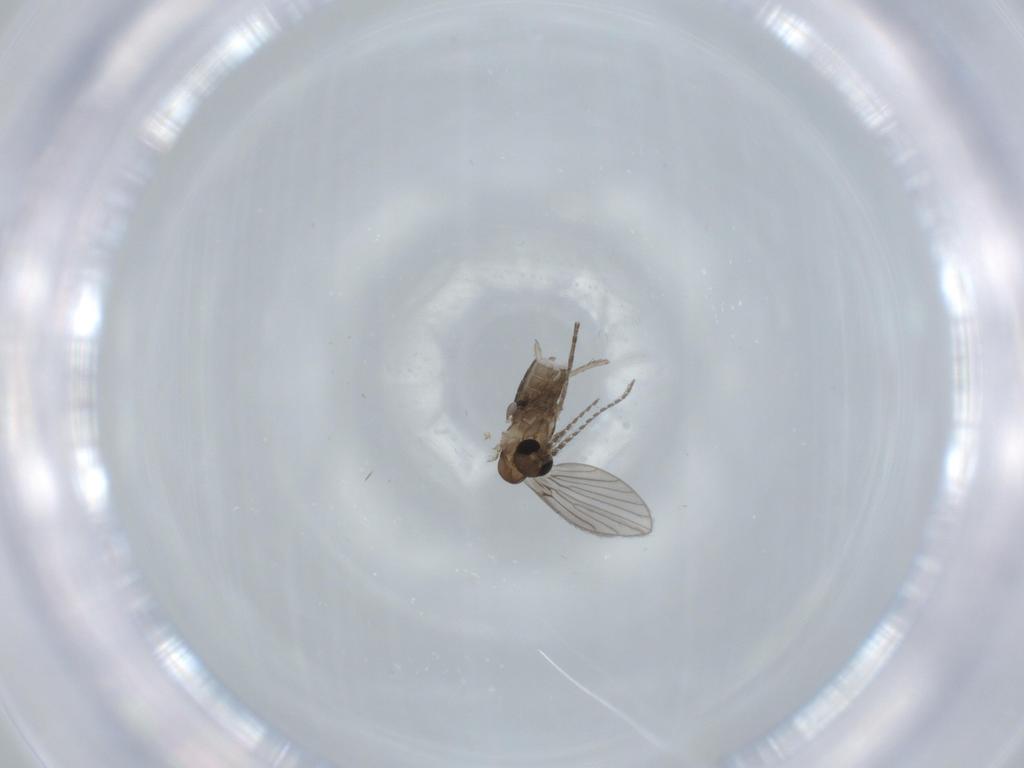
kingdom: Animalia
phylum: Arthropoda
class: Insecta
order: Diptera
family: Psychodidae
